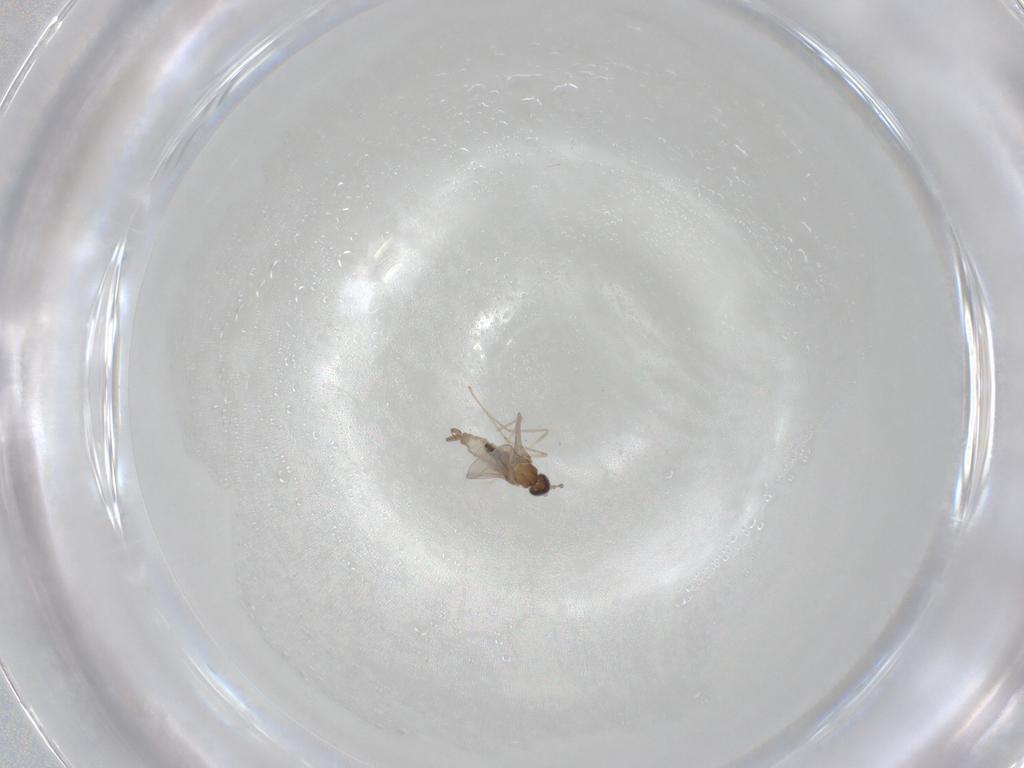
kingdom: Animalia
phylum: Arthropoda
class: Insecta
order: Diptera
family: Cecidomyiidae
